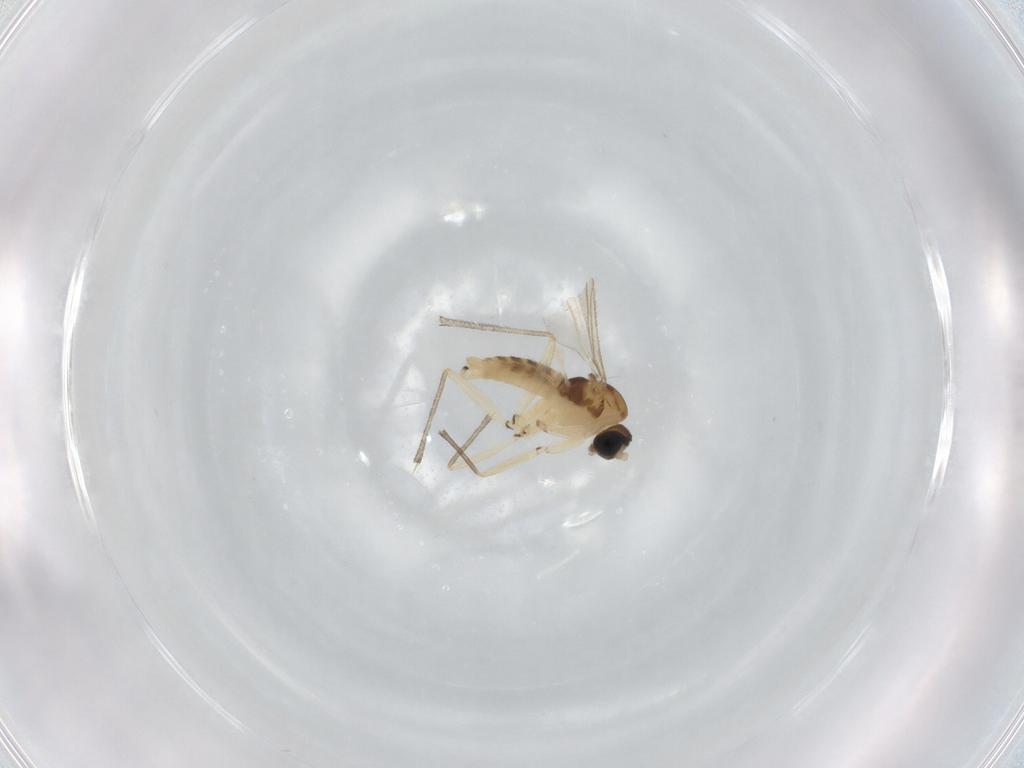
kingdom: Animalia
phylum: Arthropoda
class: Insecta
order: Diptera
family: Sciaridae
